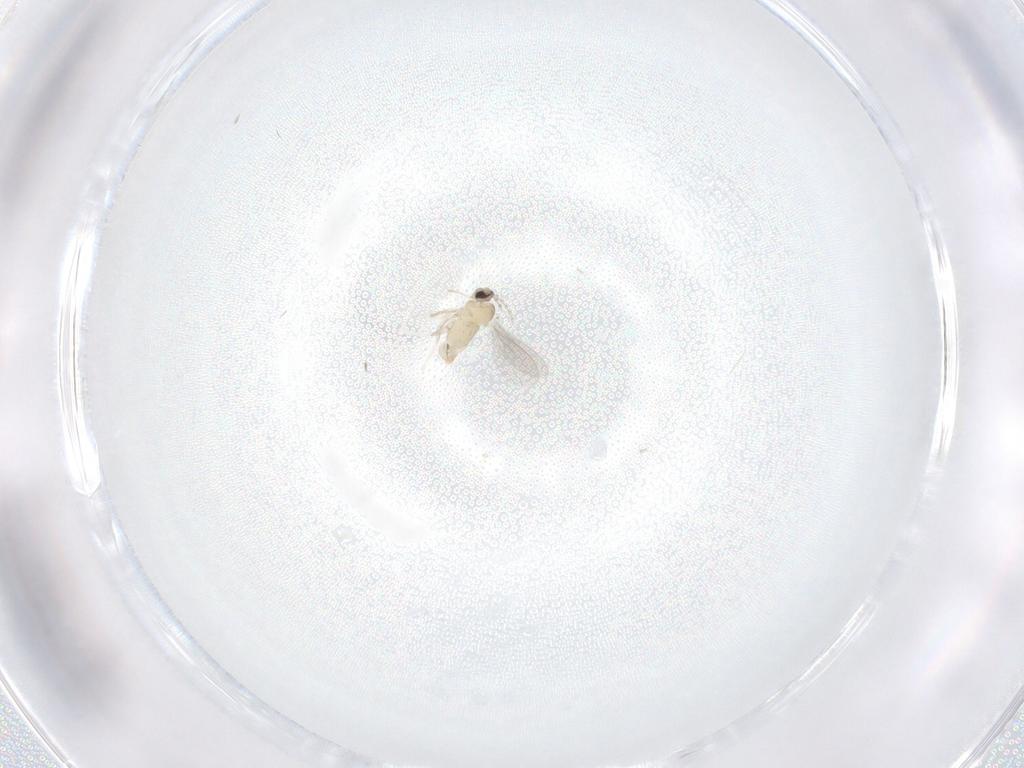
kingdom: Animalia
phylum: Arthropoda
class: Insecta
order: Diptera
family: Cecidomyiidae
